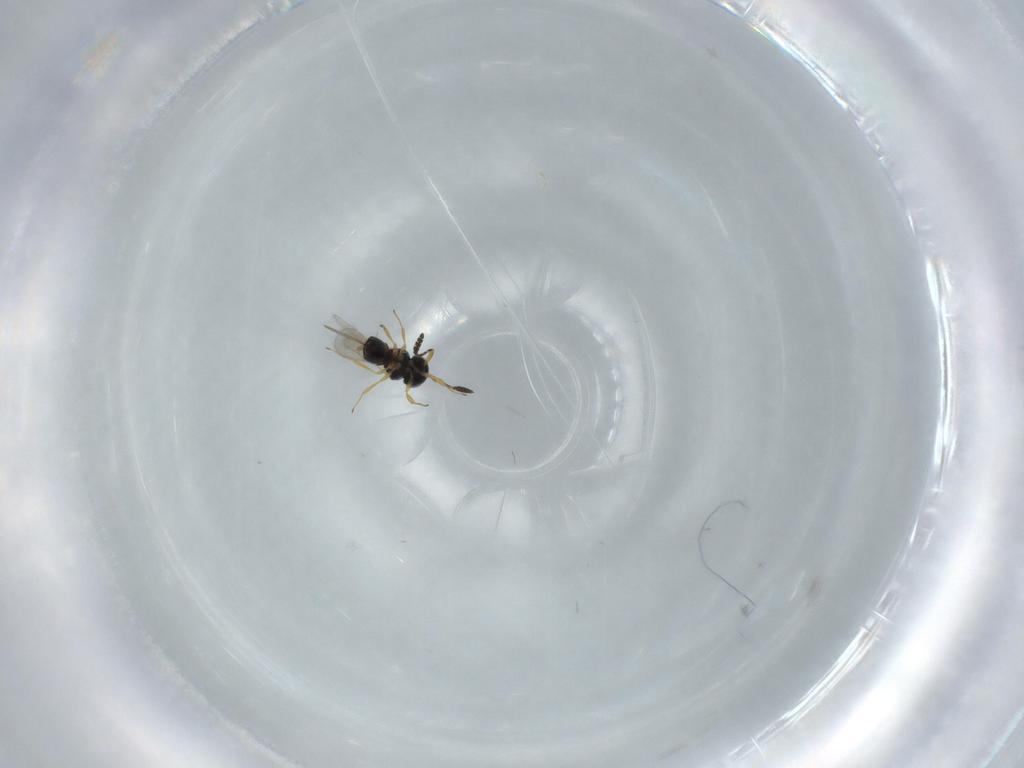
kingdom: Animalia
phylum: Arthropoda
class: Insecta
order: Hymenoptera
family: Scelionidae
